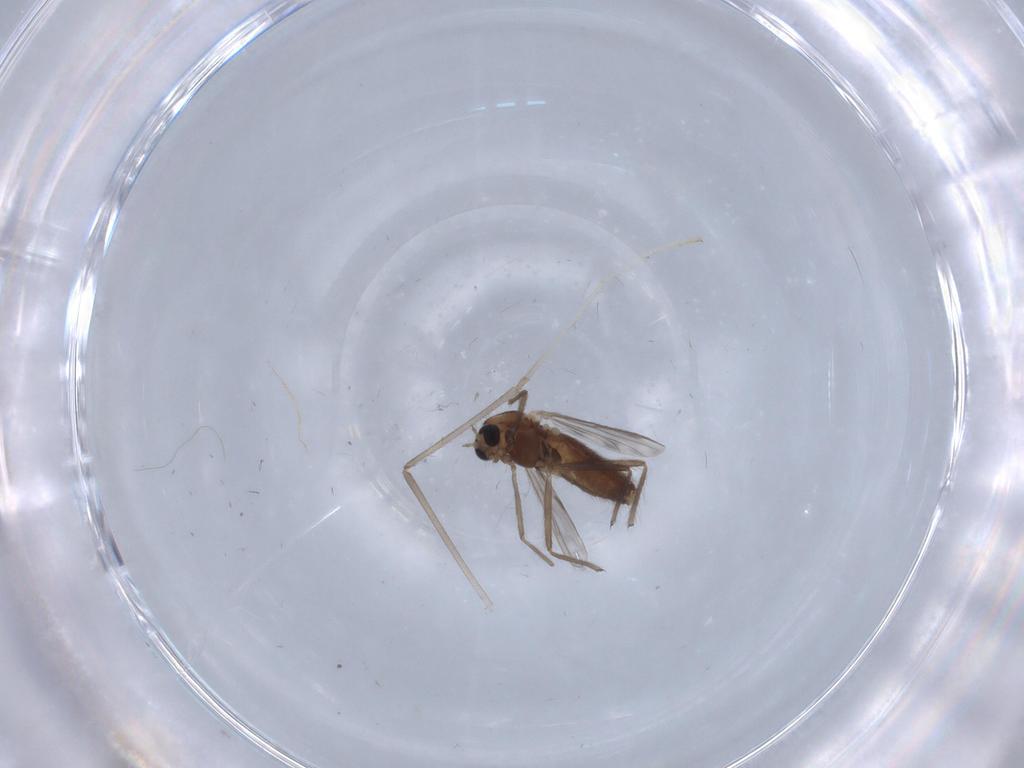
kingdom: Animalia
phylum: Arthropoda
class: Insecta
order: Diptera
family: Chironomidae
